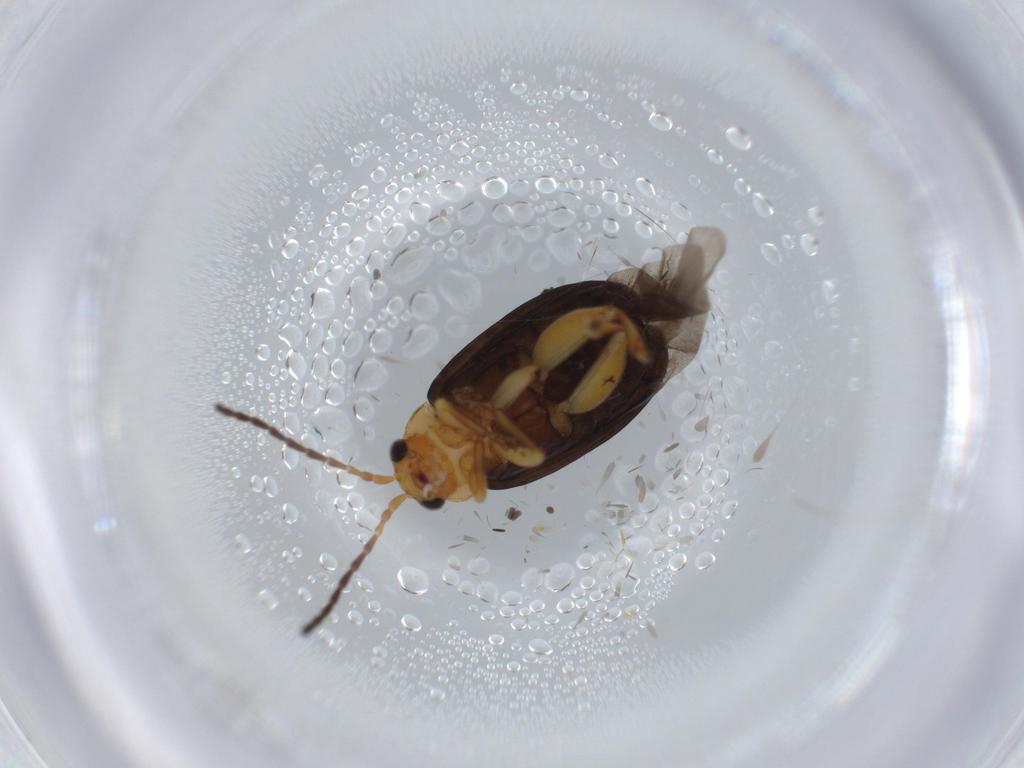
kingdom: Animalia
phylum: Arthropoda
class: Insecta
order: Coleoptera
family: Chrysomelidae
